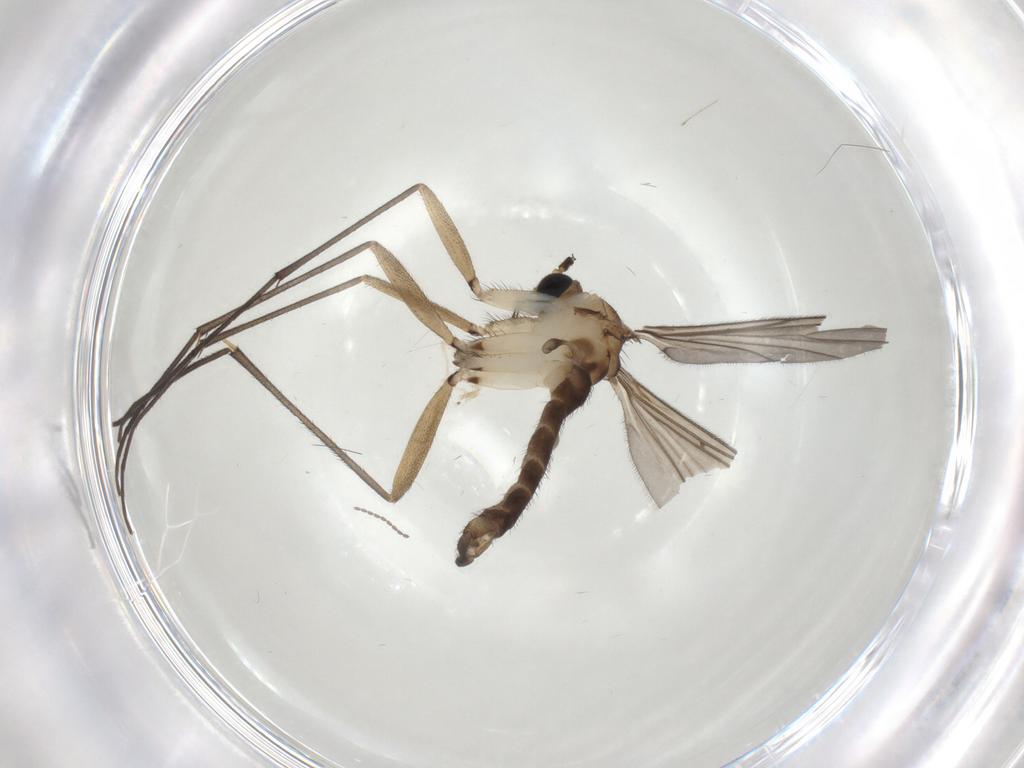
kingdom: Animalia
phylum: Arthropoda
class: Insecta
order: Diptera
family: Sciaridae
